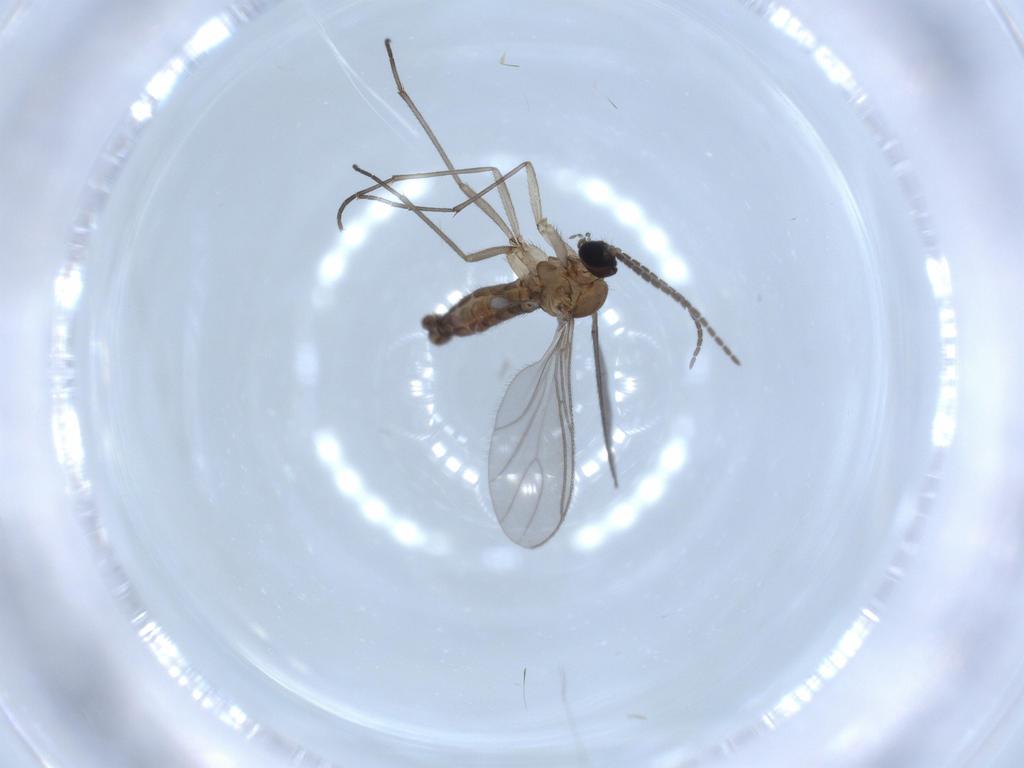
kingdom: Animalia
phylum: Arthropoda
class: Insecta
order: Diptera
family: Sciaridae
